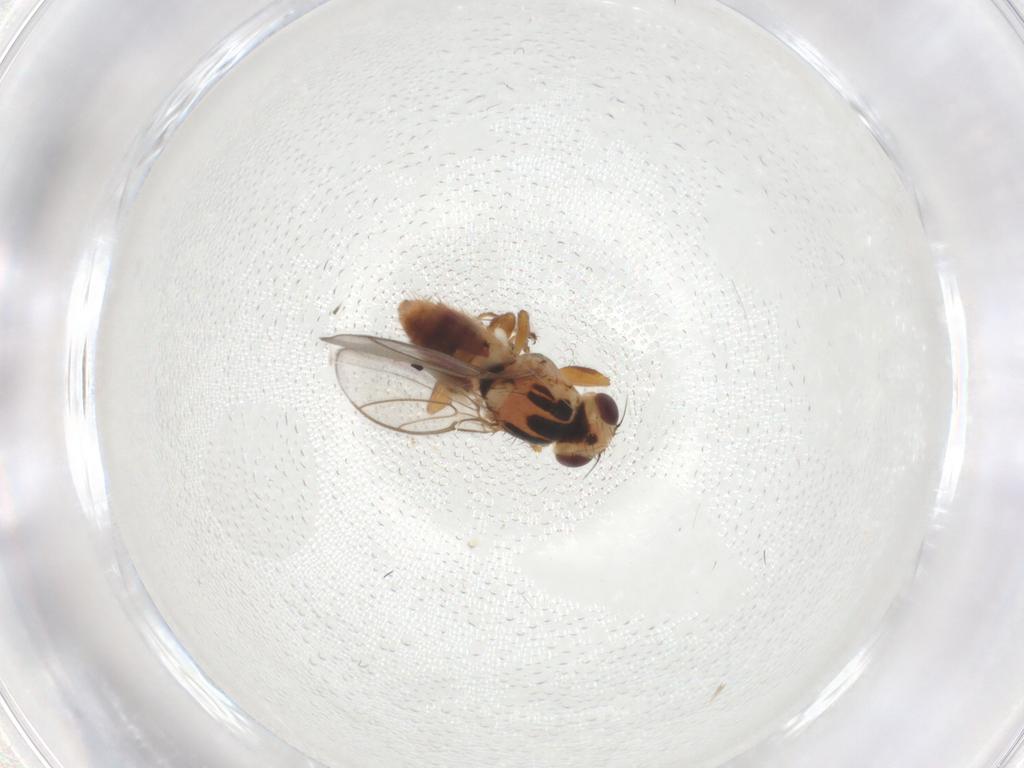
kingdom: Animalia
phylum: Arthropoda
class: Insecta
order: Diptera
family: Chloropidae
